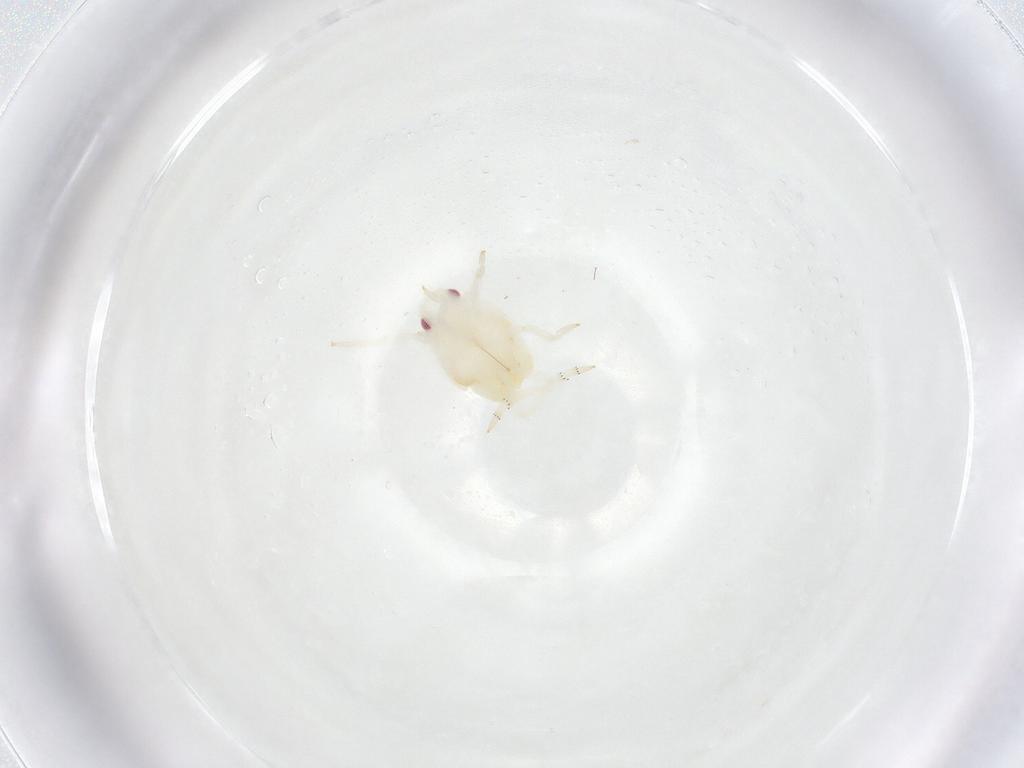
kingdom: Animalia
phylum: Arthropoda
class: Insecta
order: Hemiptera
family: Flatidae
